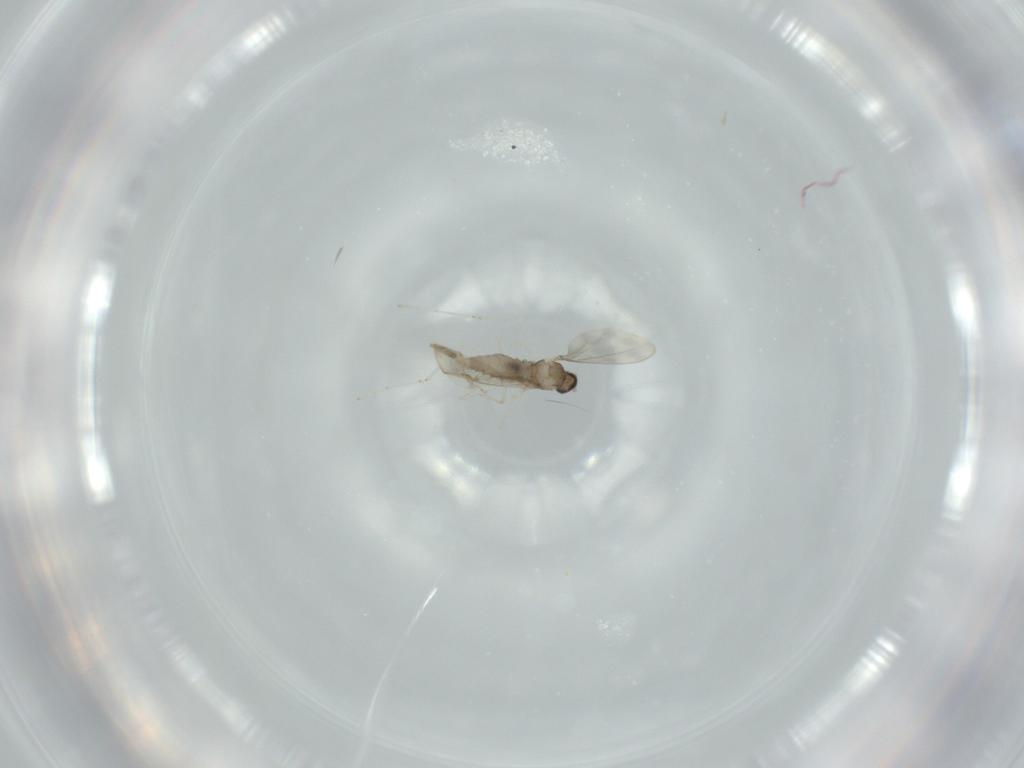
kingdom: Animalia
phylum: Arthropoda
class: Insecta
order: Diptera
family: Cecidomyiidae
